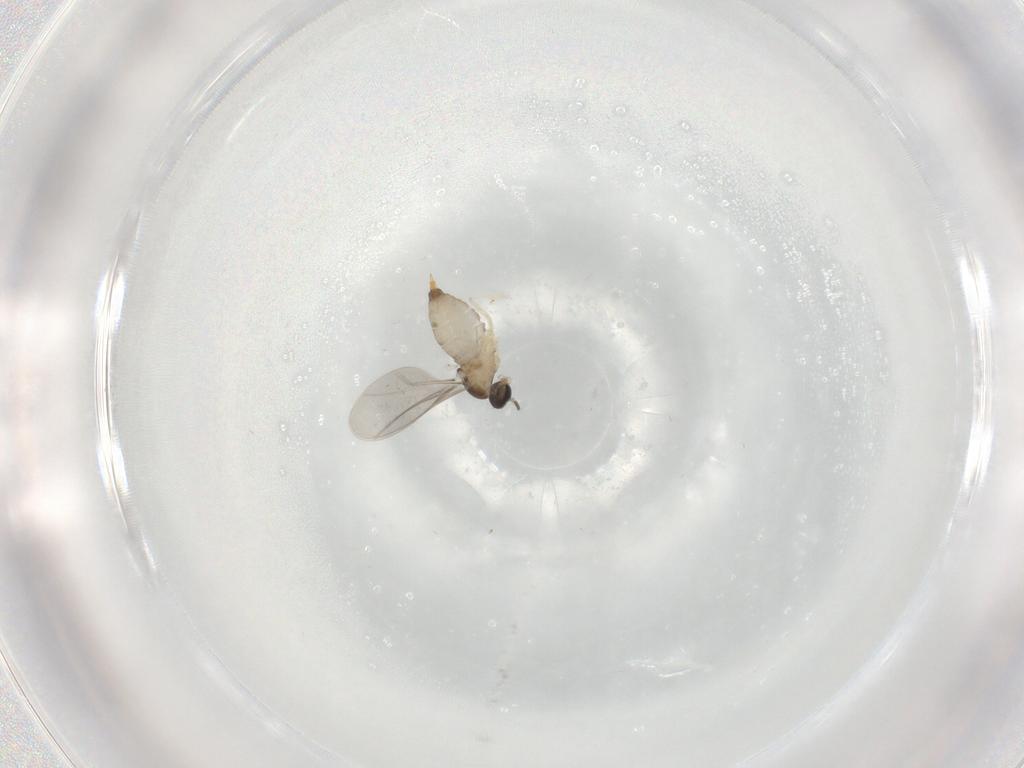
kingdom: Animalia
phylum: Arthropoda
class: Insecta
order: Diptera
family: Cecidomyiidae
